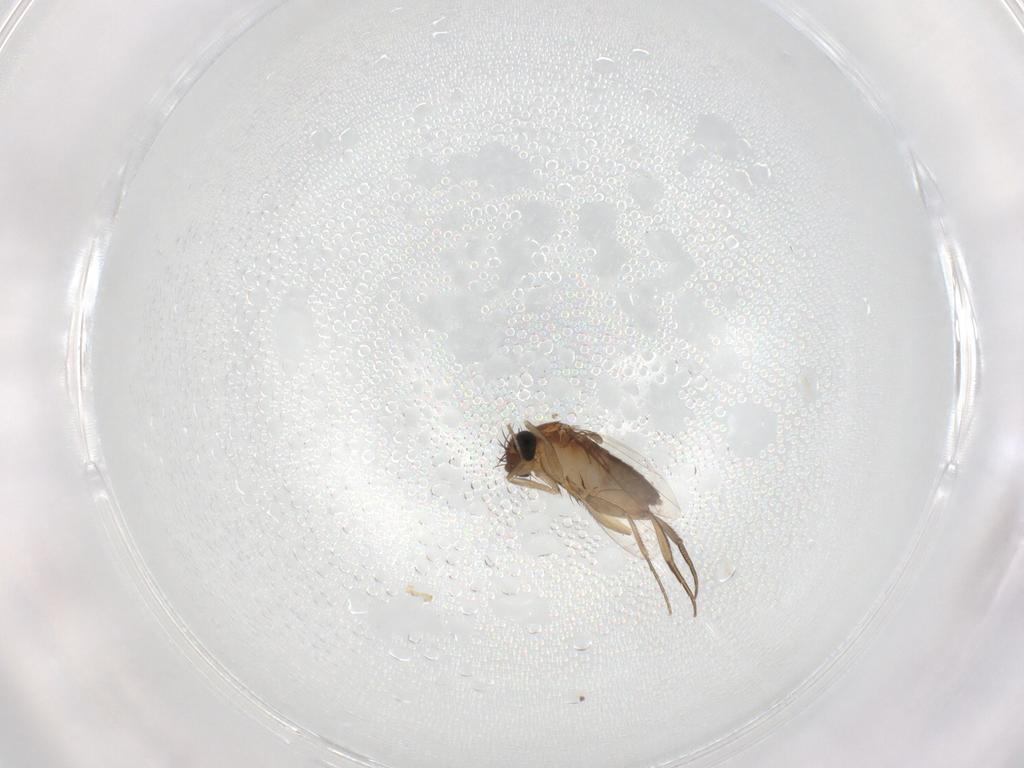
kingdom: Animalia
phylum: Arthropoda
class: Insecta
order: Diptera
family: Phoridae
